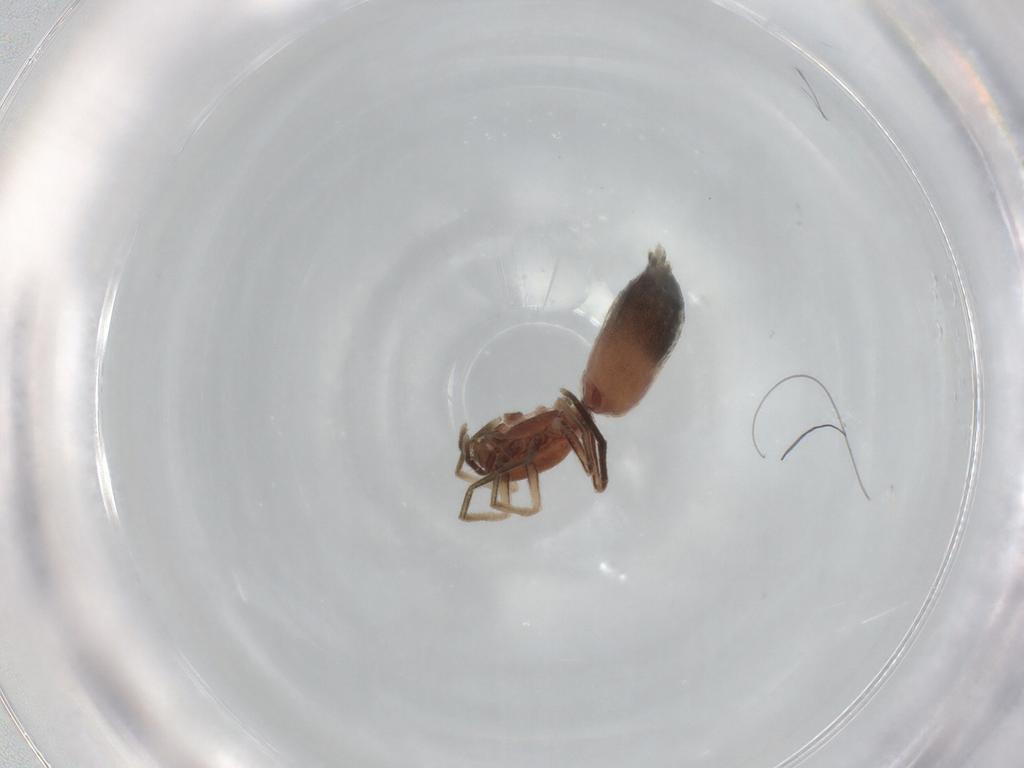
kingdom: Animalia
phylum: Arthropoda
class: Arachnida
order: Araneae
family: Gnaphosidae
